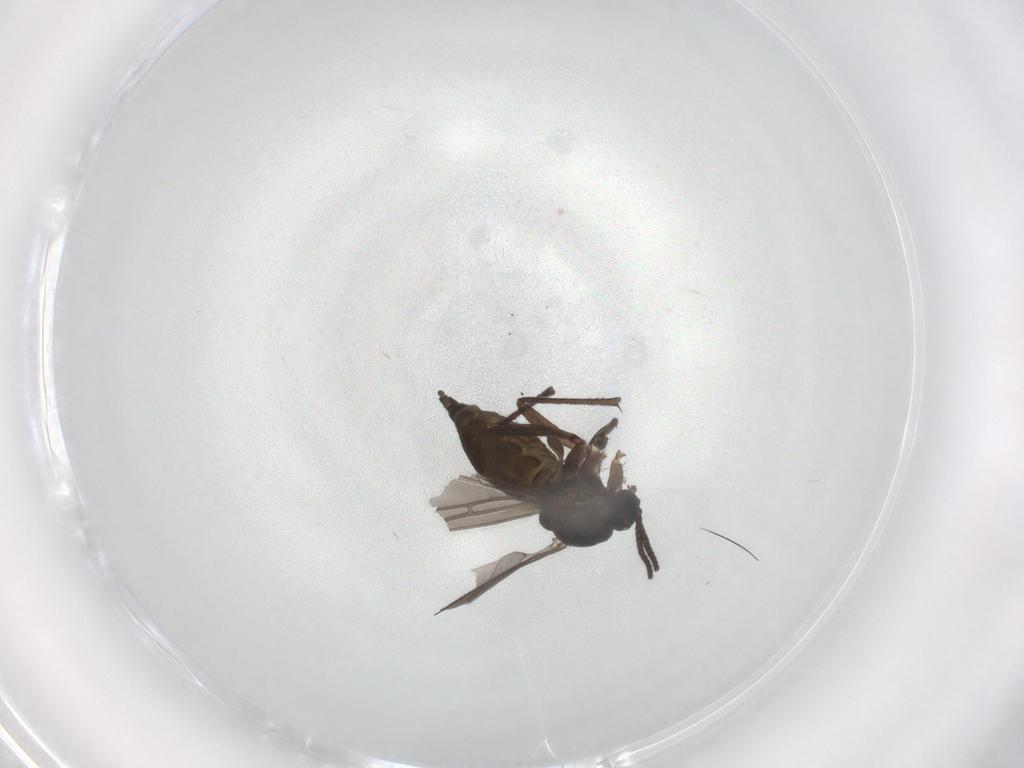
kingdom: Animalia
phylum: Arthropoda
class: Insecta
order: Diptera
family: Sciaridae
